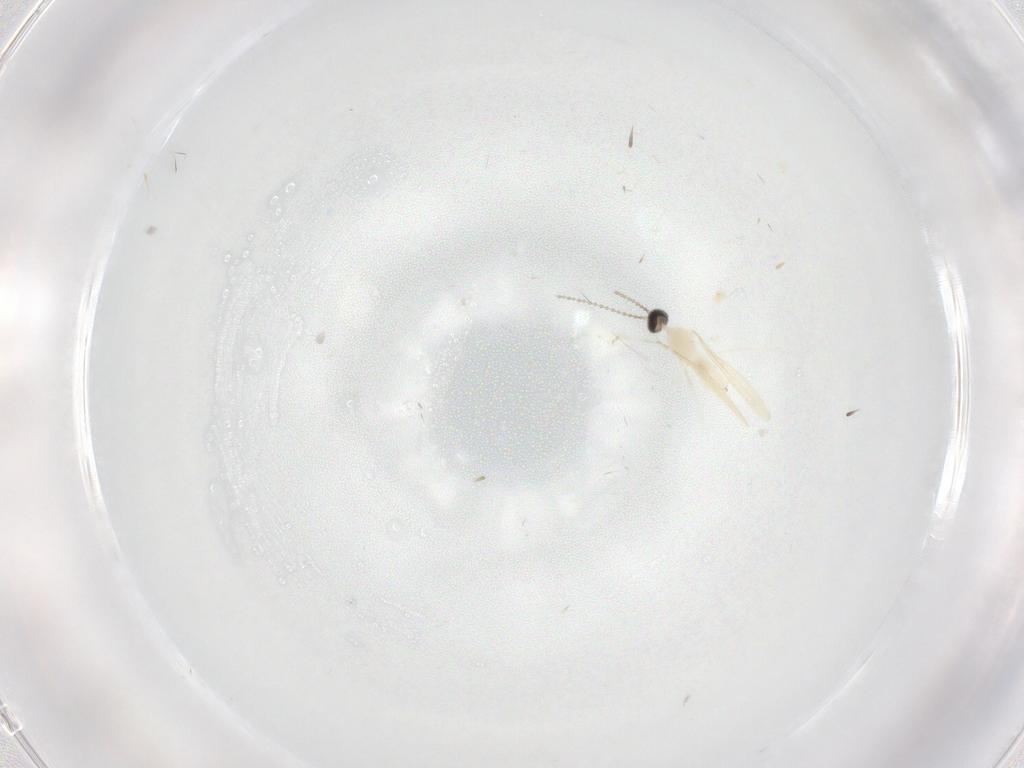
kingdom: Animalia
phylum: Arthropoda
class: Insecta
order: Diptera
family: Cecidomyiidae
